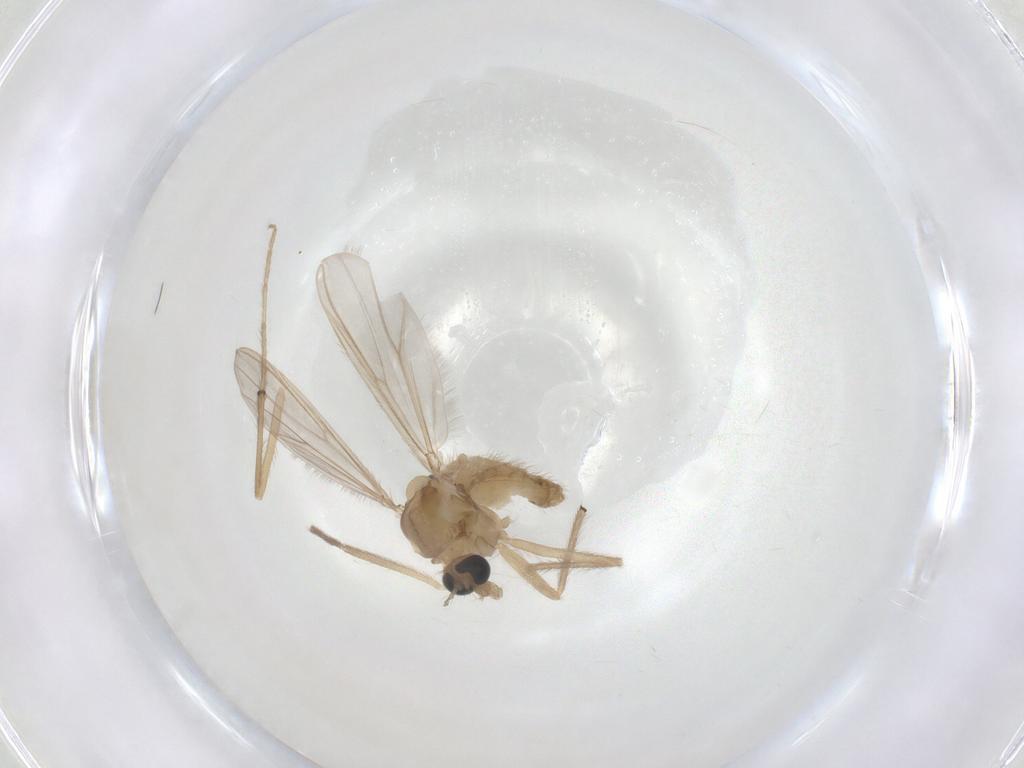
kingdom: Animalia
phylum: Arthropoda
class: Insecta
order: Diptera
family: Chironomidae
